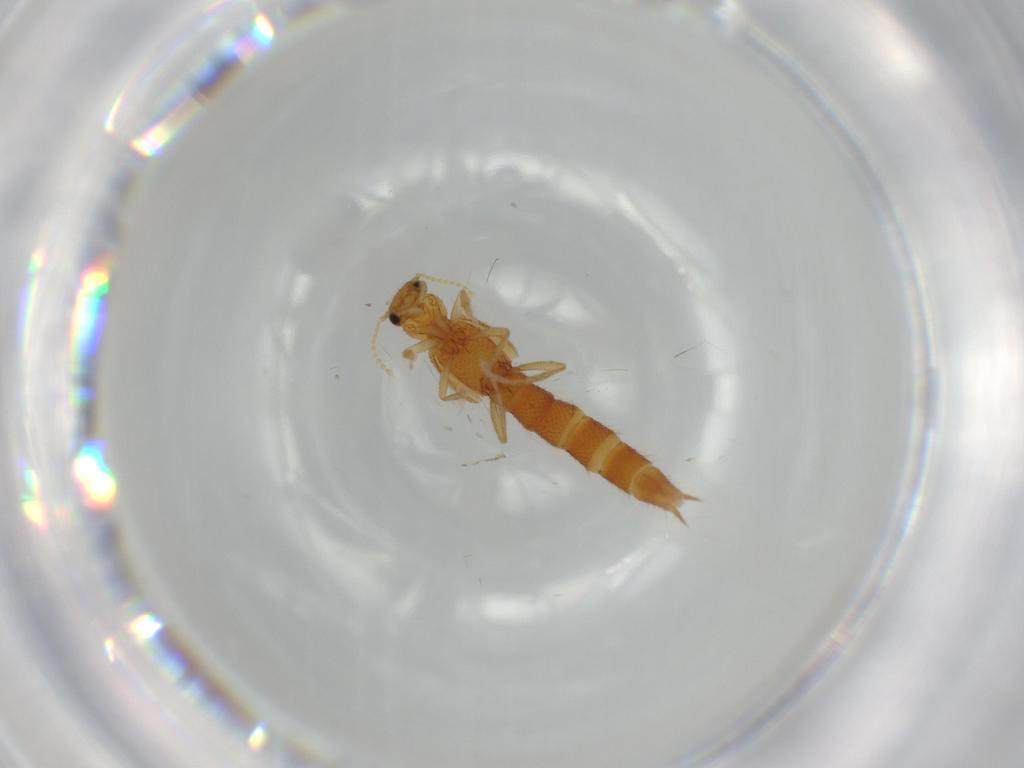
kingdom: Animalia
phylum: Arthropoda
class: Insecta
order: Coleoptera
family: Staphylinidae
